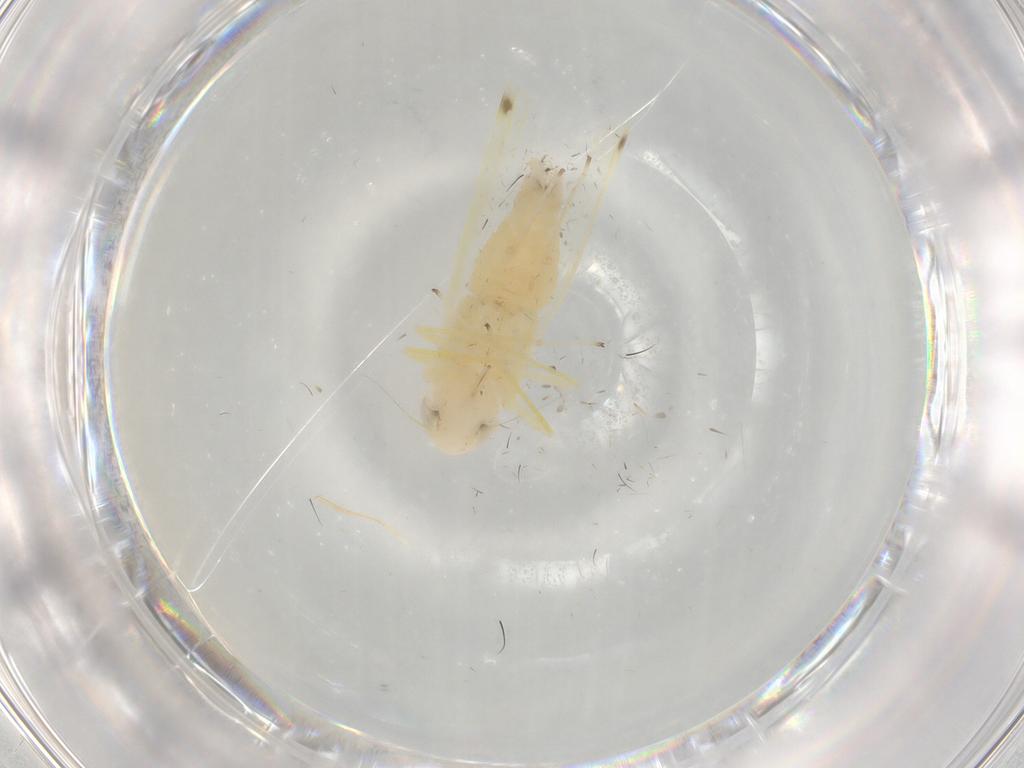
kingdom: Animalia
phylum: Arthropoda
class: Insecta
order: Hemiptera
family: Cicadellidae
